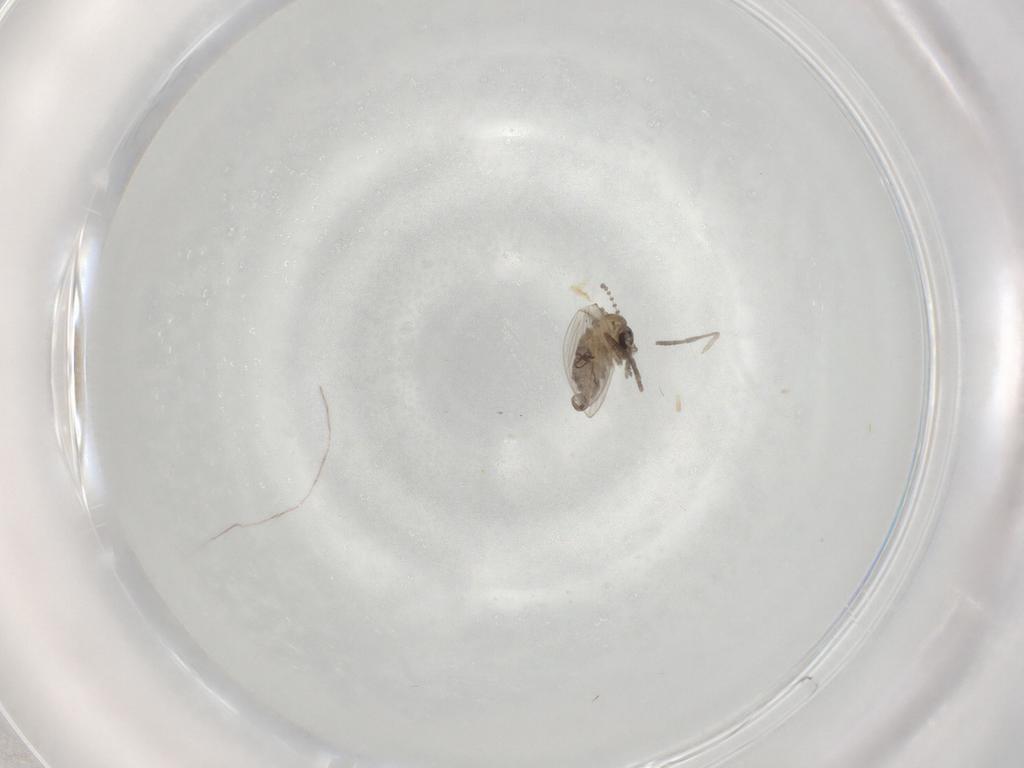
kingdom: Animalia
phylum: Arthropoda
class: Insecta
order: Diptera
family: Psychodidae
